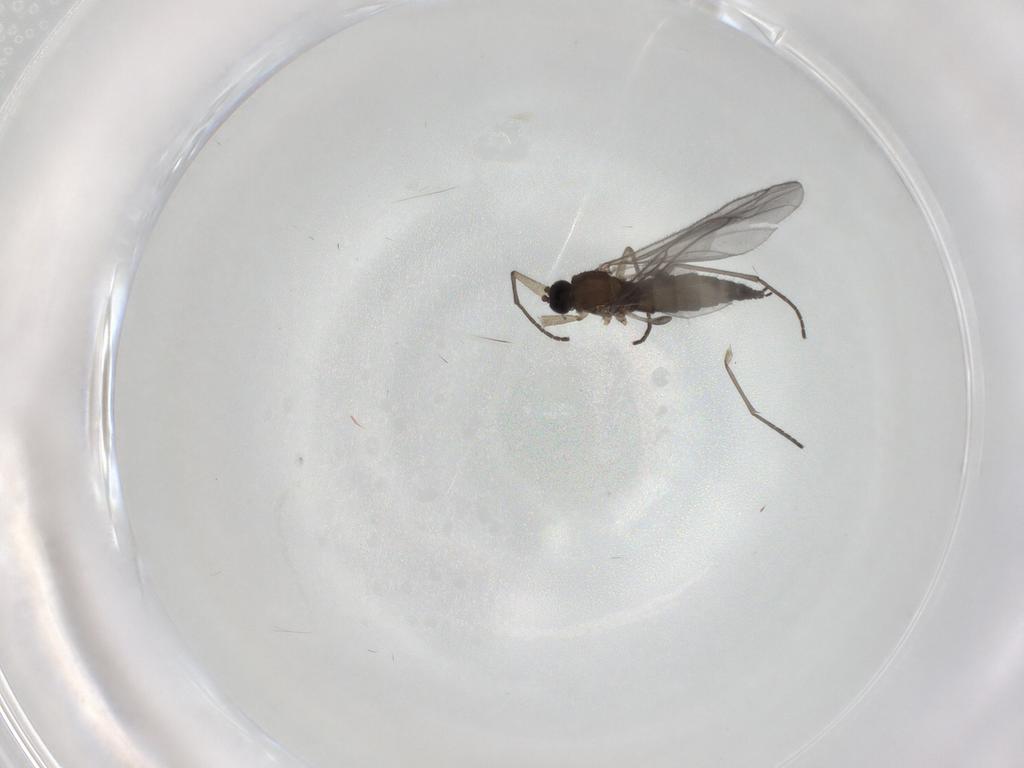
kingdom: Animalia
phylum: Arthropoda
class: Insecta
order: Diptera
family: Sciaridae
